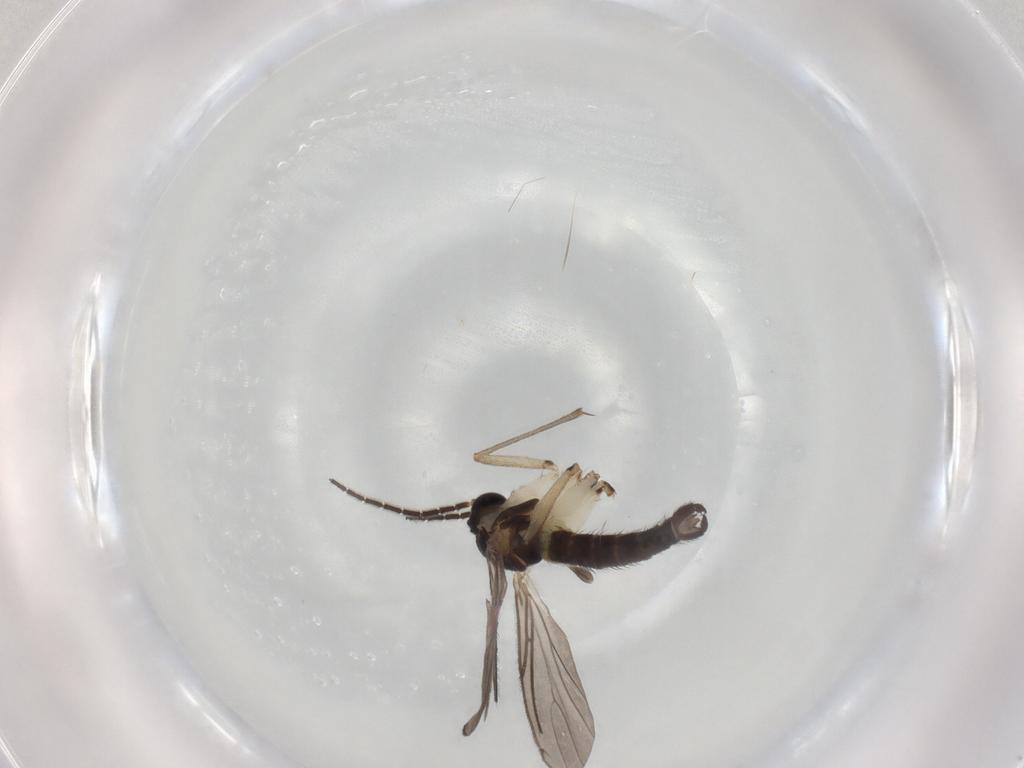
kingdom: Animalia
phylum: Arthropoda
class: Insecta
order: Diptera
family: Sciaridae
